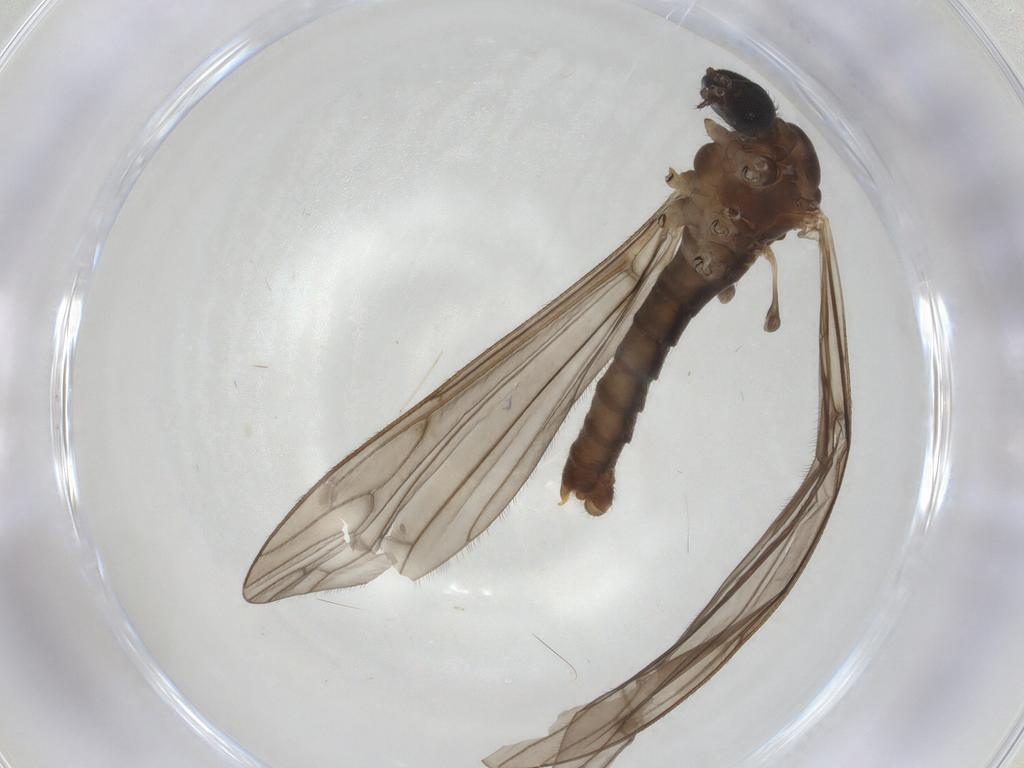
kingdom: Animalia
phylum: Arthropoda
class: Insecta
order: Diptera
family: Limoniidae
